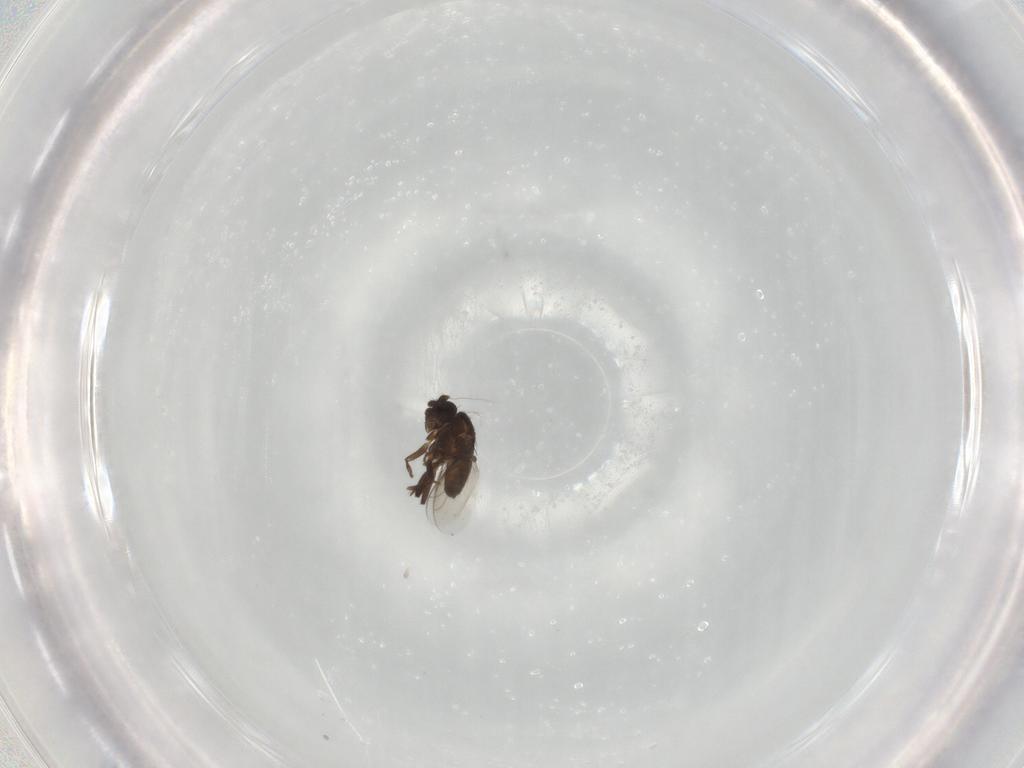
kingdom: Animalia
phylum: Arthropoda
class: Insecta
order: Diptera
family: Sphaeroceridae
